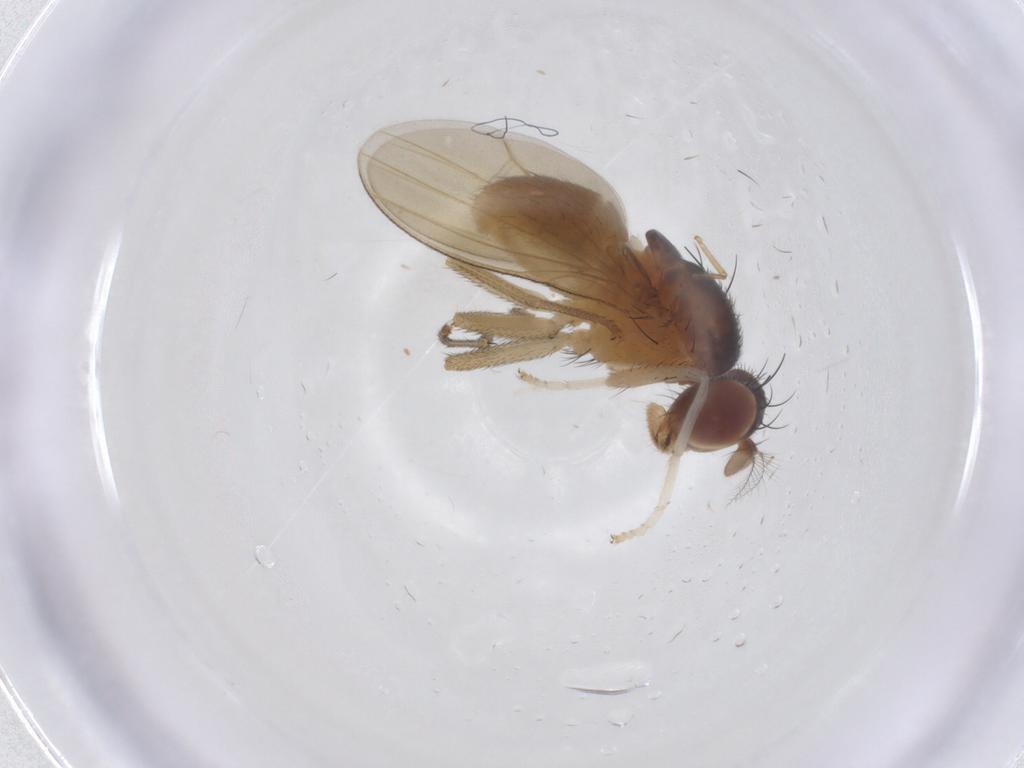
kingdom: Animalia
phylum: Arthropoda
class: Insecta
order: Diptera
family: Lauxaniidae
